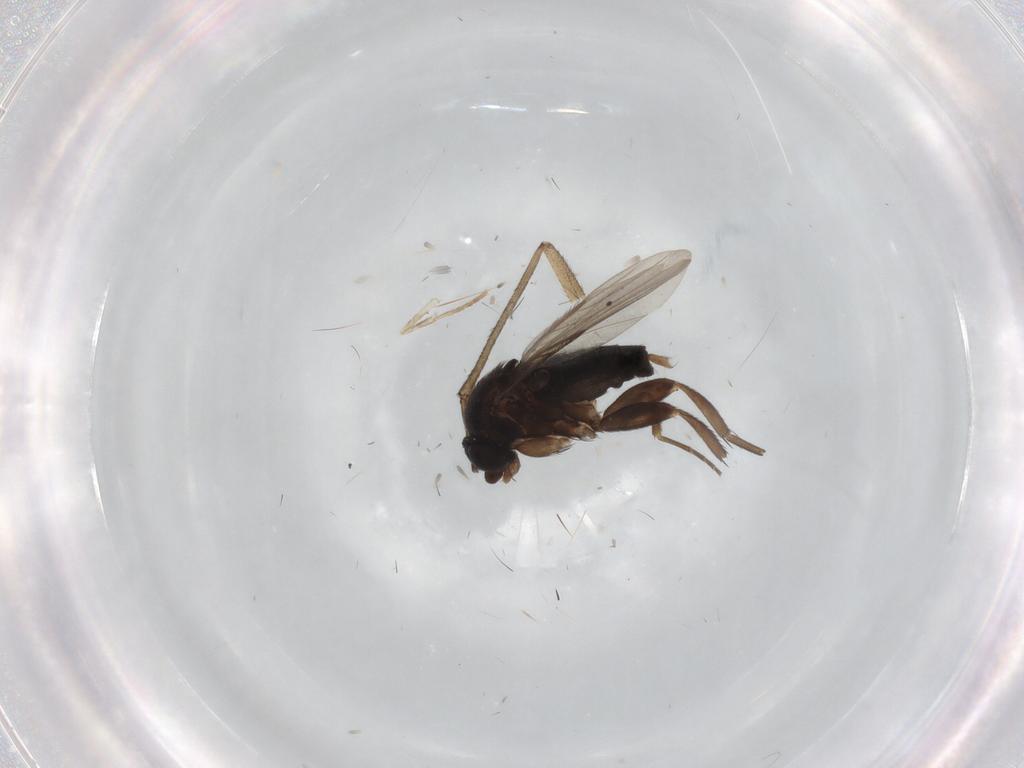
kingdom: Animalia
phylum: Arthropoda
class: Insecta
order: Diptera
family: Phoridae
